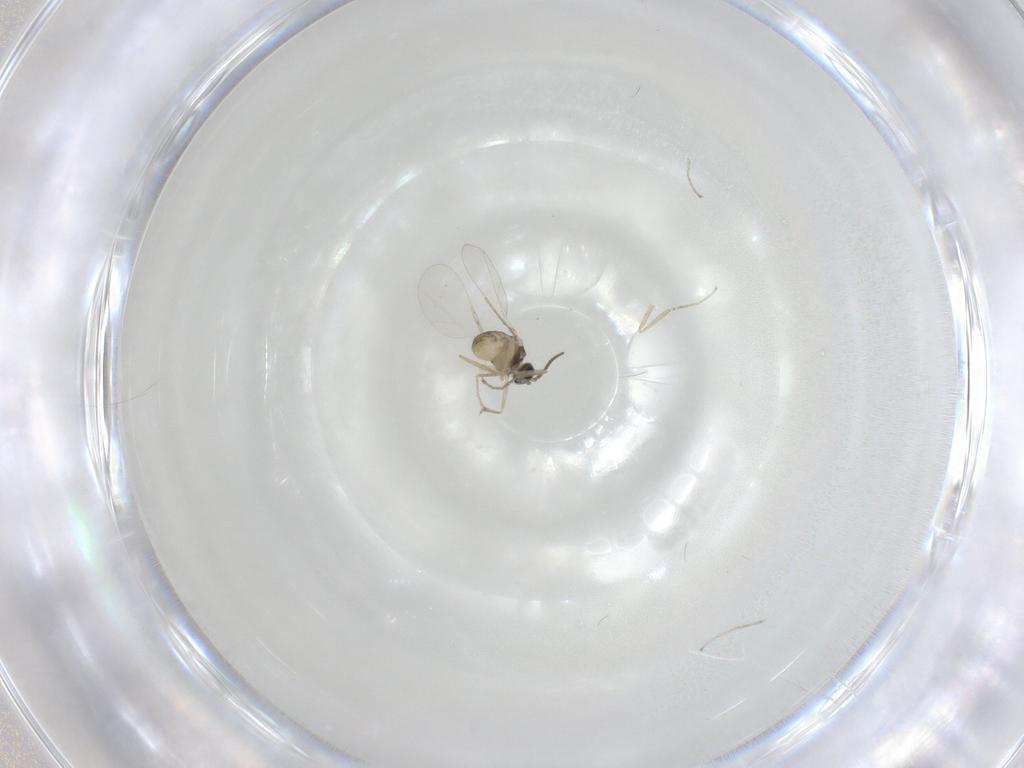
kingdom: Animalia
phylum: Arthropoda
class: Insecta
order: Diptera
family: Cecidomyiidae
